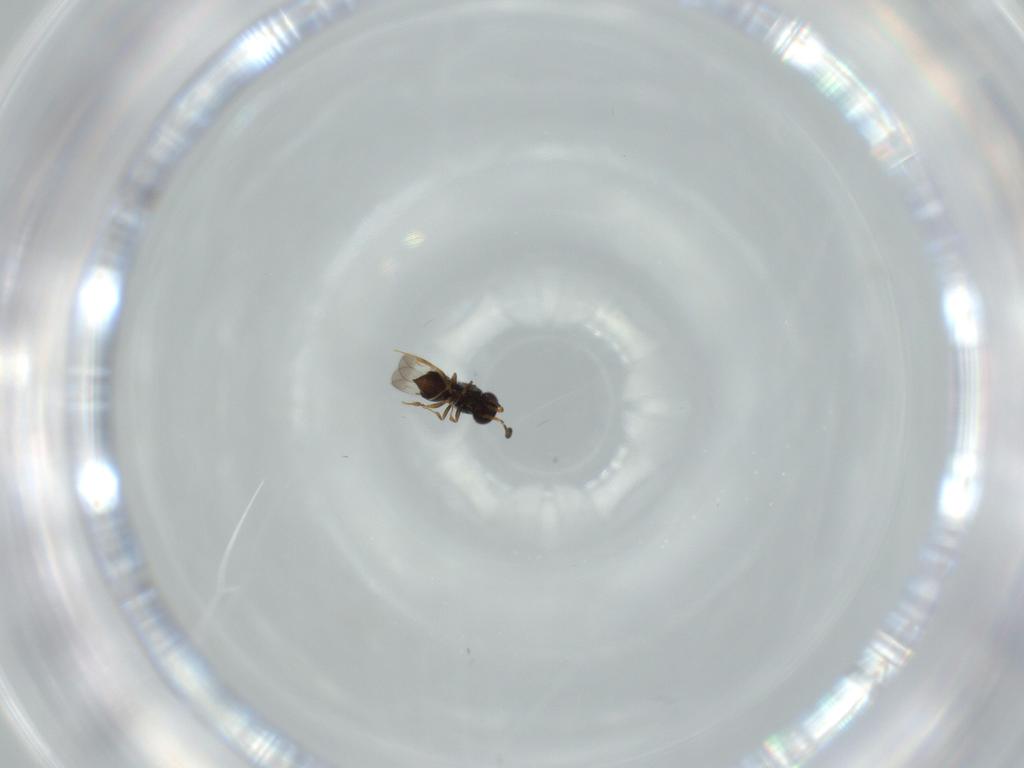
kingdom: Animalia
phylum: Arthropoda
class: Insecta
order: Hymenoptera
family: Ceraphronidae
